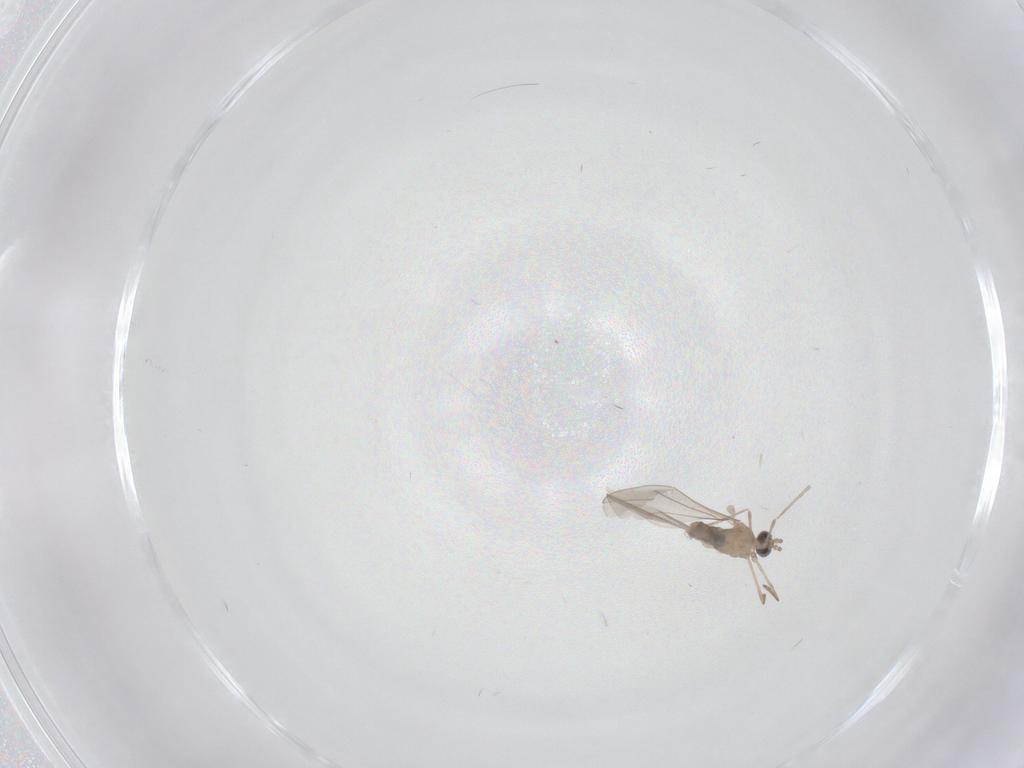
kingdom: Animalia
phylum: Arthropoda
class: Insecta
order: Diptera
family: Cecidomyiidae
